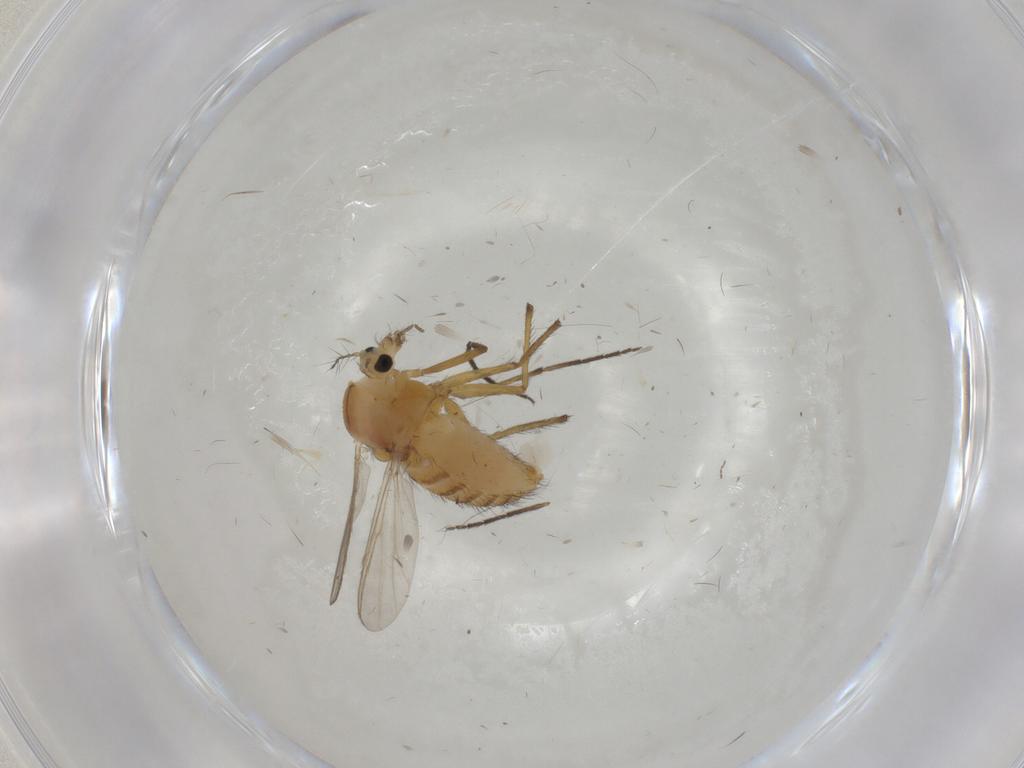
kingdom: Animalia
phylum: Arthropoda
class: Insecta
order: Diptera
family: Chironomidae
